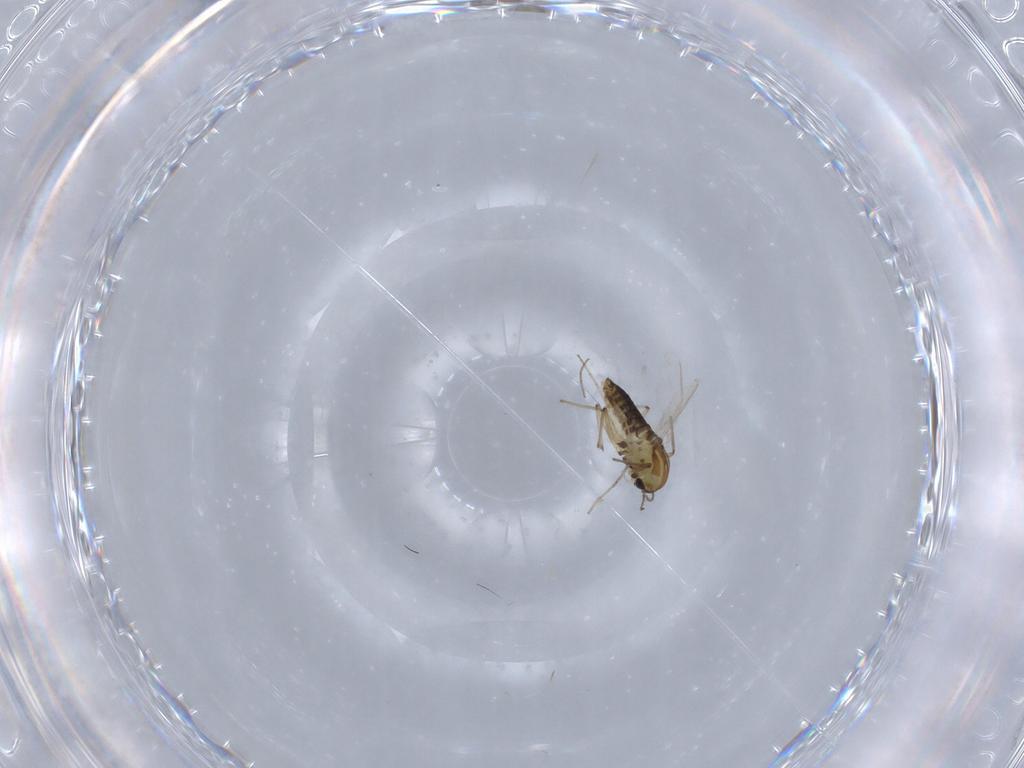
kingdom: Animalia
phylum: Arthropoda
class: Insecta
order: Diptera
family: Chironomidae
